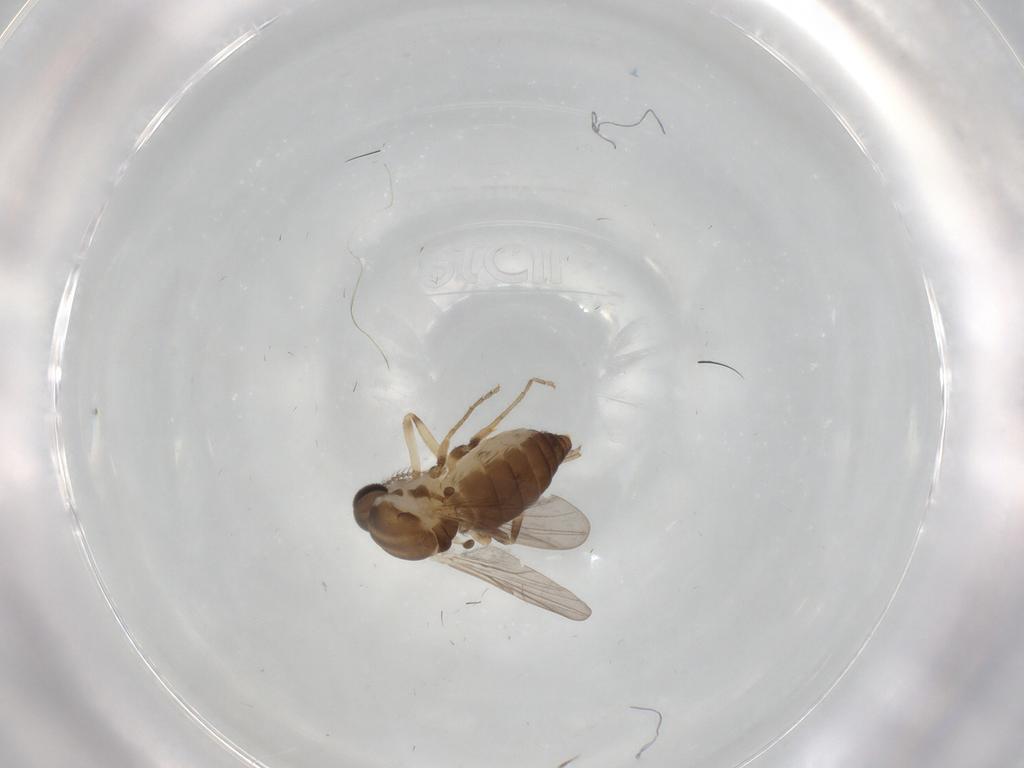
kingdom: Animalia
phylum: Arthropoda
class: Insecta
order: Diptera
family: Ceratopogonidae
